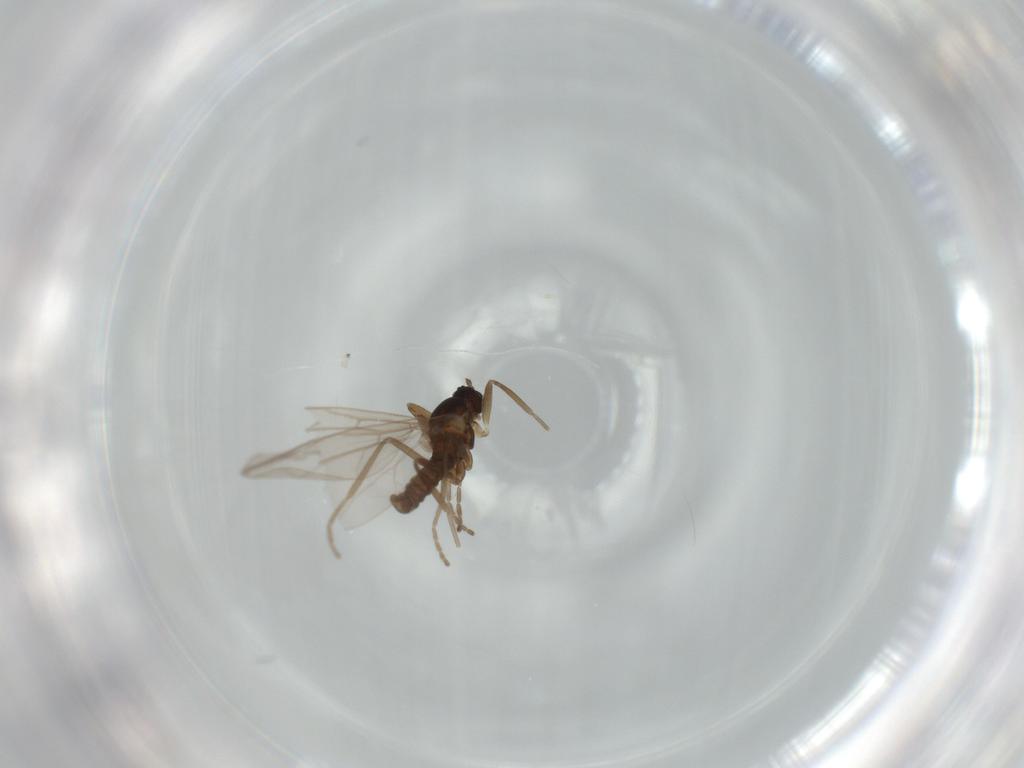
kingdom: Animalia
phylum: Arthropoda
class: Insecta
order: Diptera
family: Cecidomyiidae
